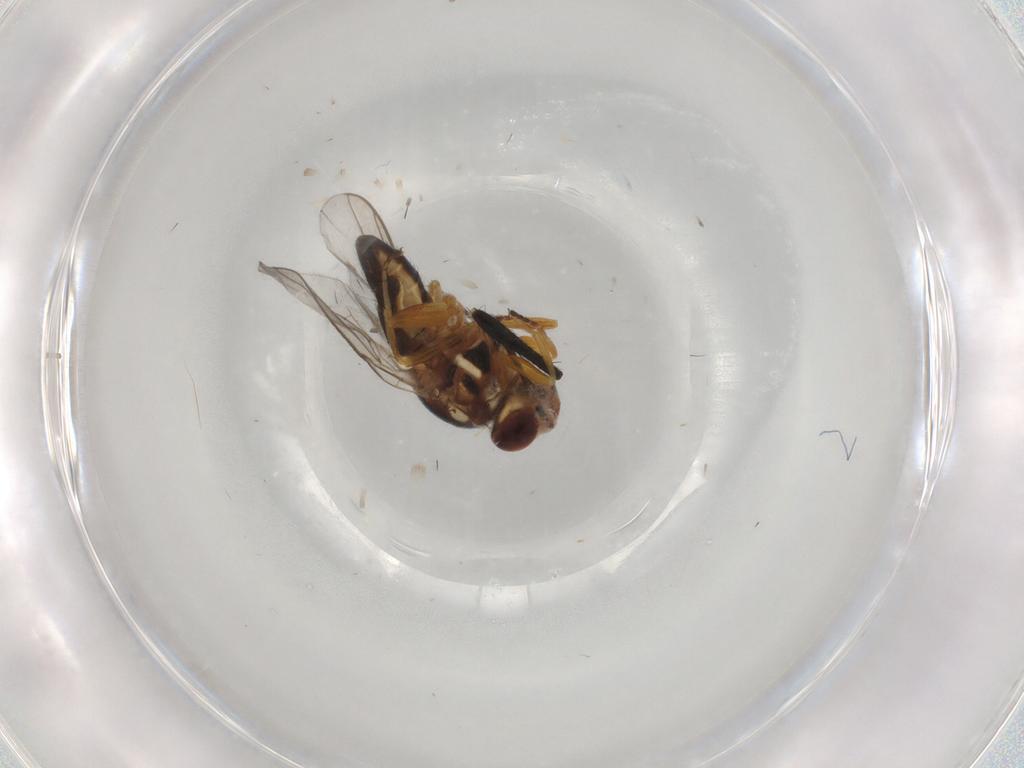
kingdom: Animalia
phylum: Arthropoda
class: Insecta
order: Diptera
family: Chloropidae
